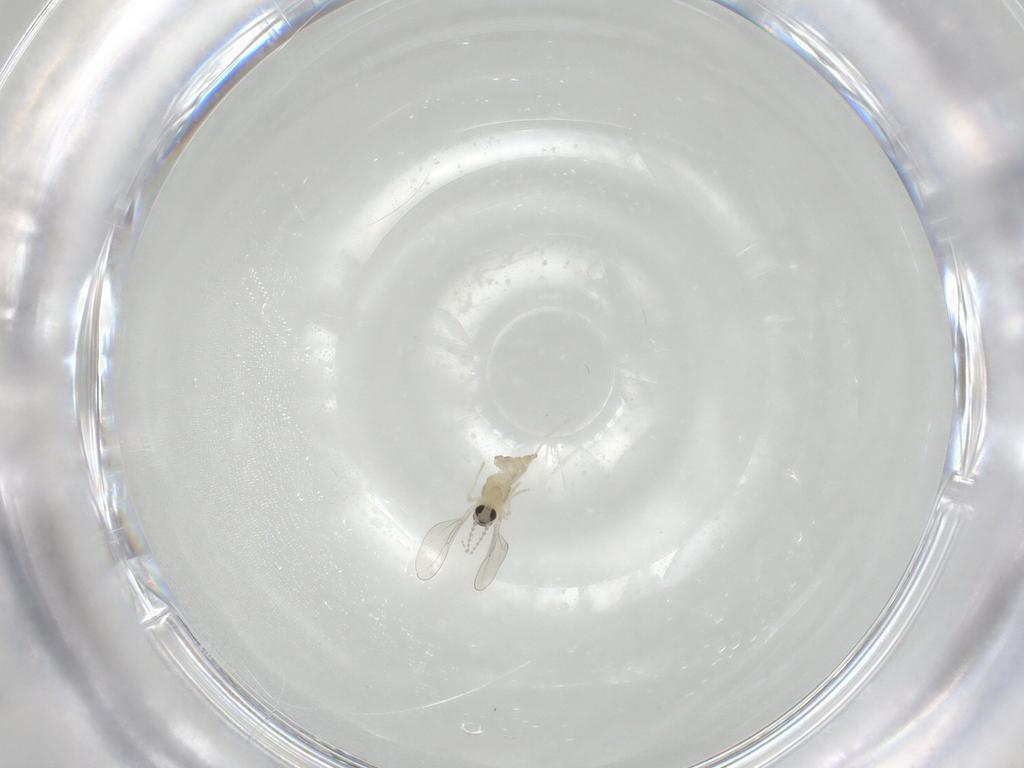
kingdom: Animalia
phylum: Arthropoda
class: Insecta
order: Diptera
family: Cecidomyiidae
